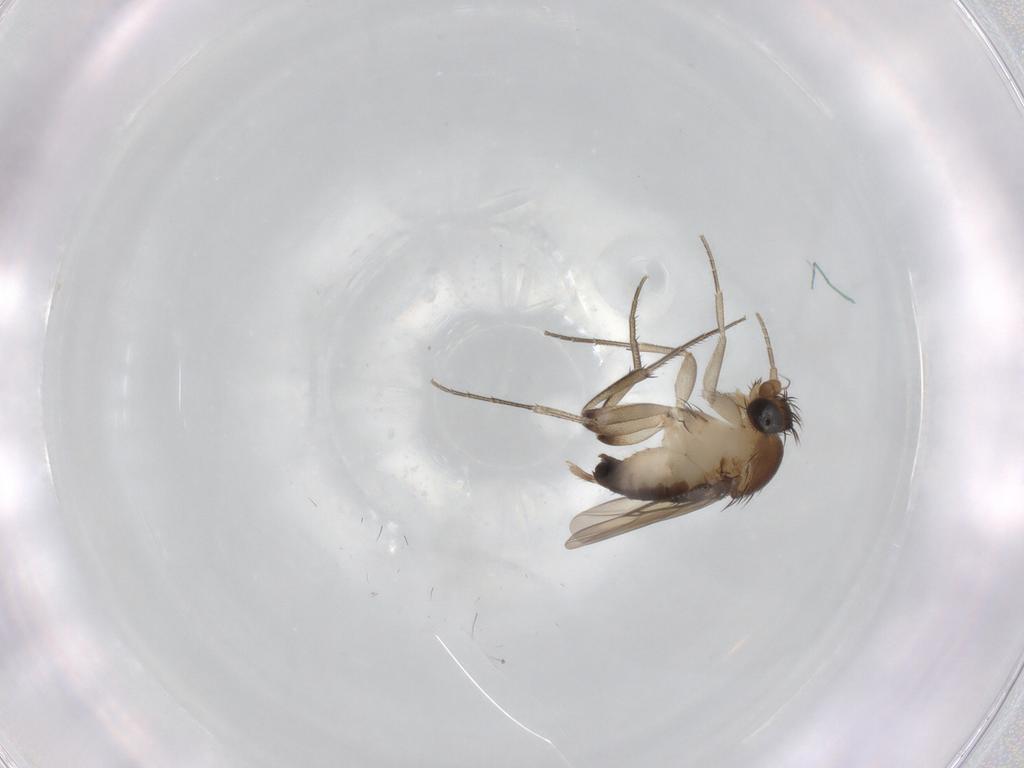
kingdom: Animalia
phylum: Arthropoda
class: Insecta
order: Diptera
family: Phoridae
